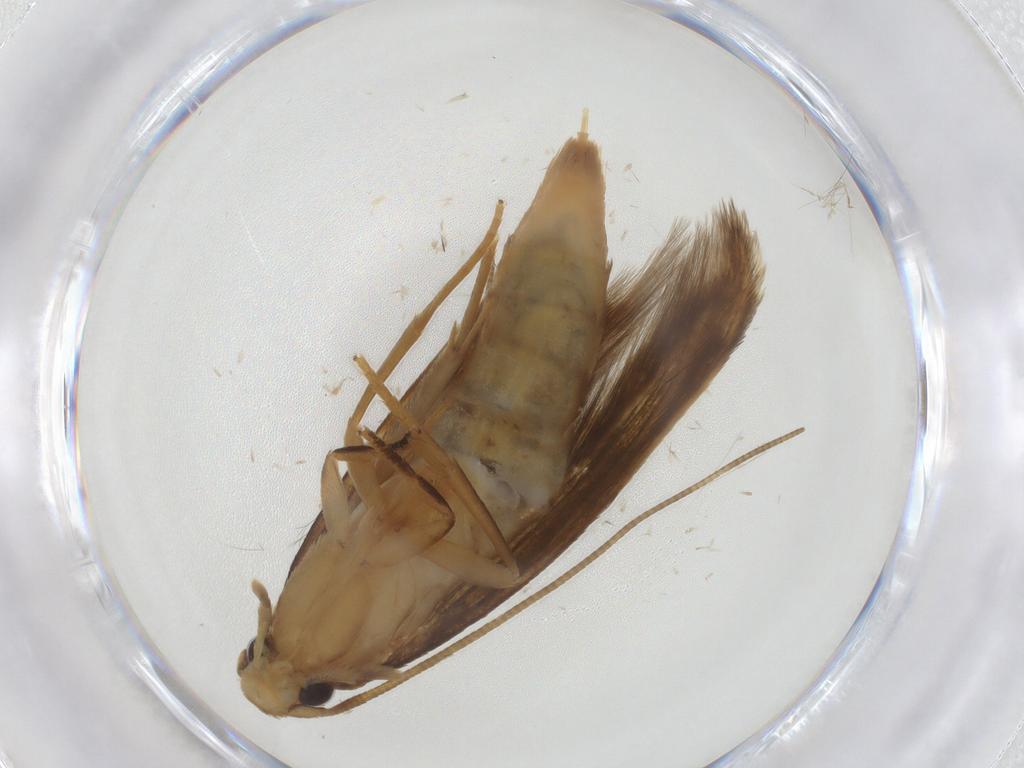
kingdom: Animalia
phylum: Arthropoda
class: Insecta
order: Lepidoptera
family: Tineidae
